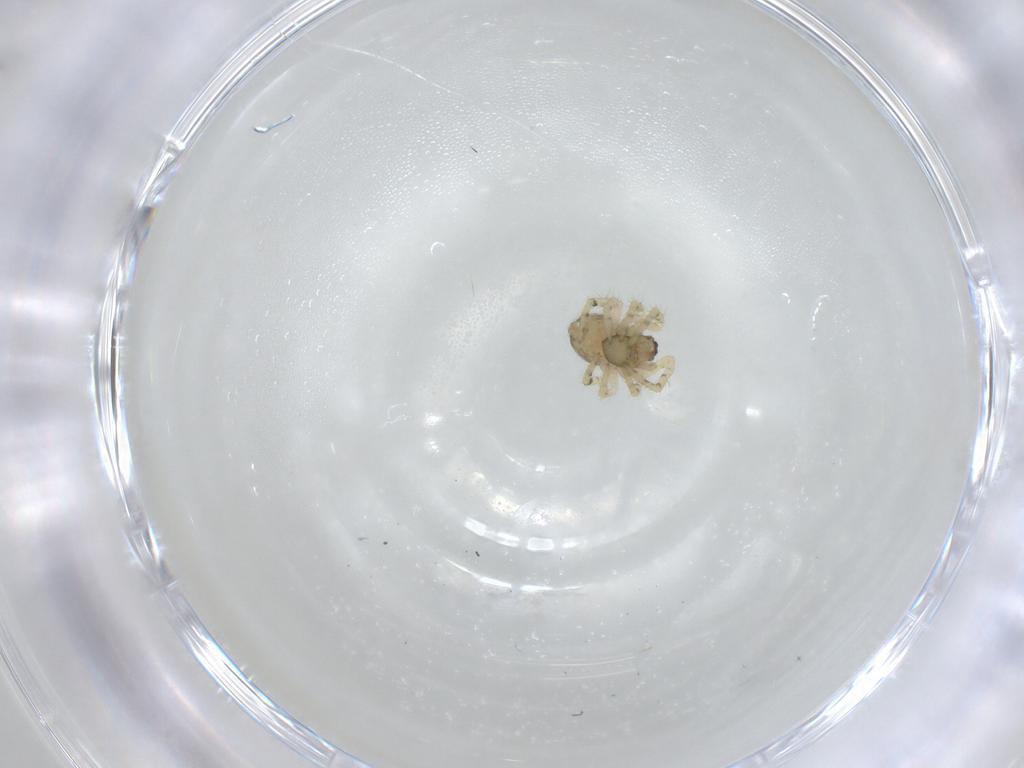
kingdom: Animalia
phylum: Arthropoda
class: Arachnida
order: Araneae
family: Theridiidae
